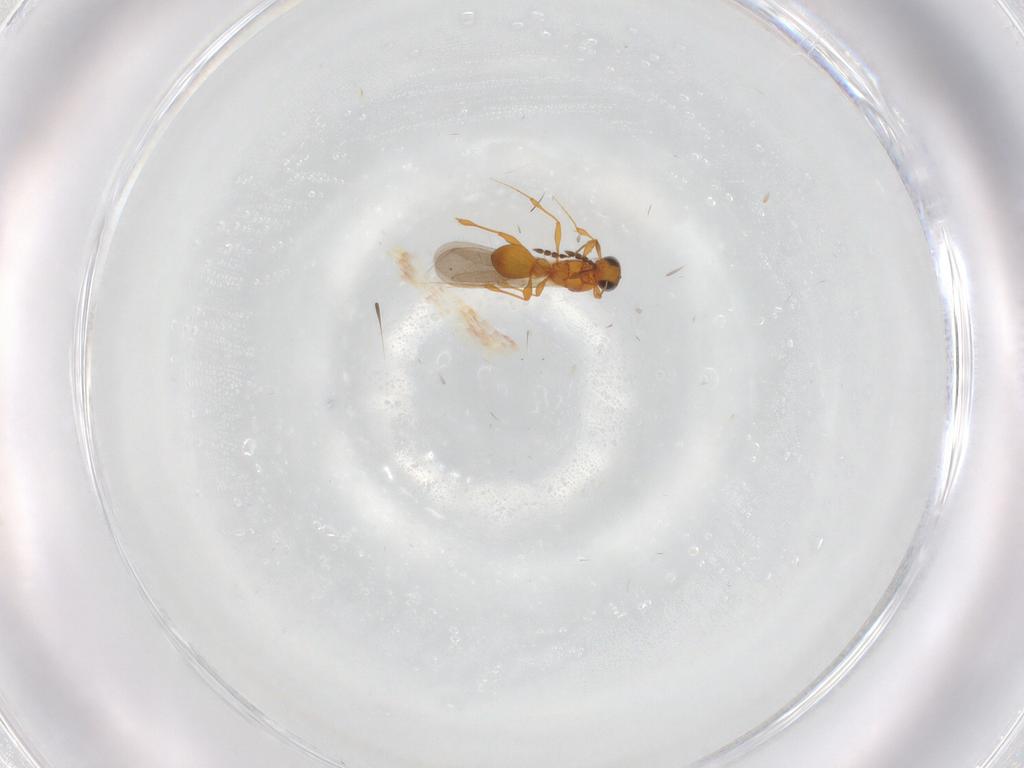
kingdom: Animalia
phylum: Arthropoda
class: Insecta
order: Hymenoptera
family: Platygastridae
